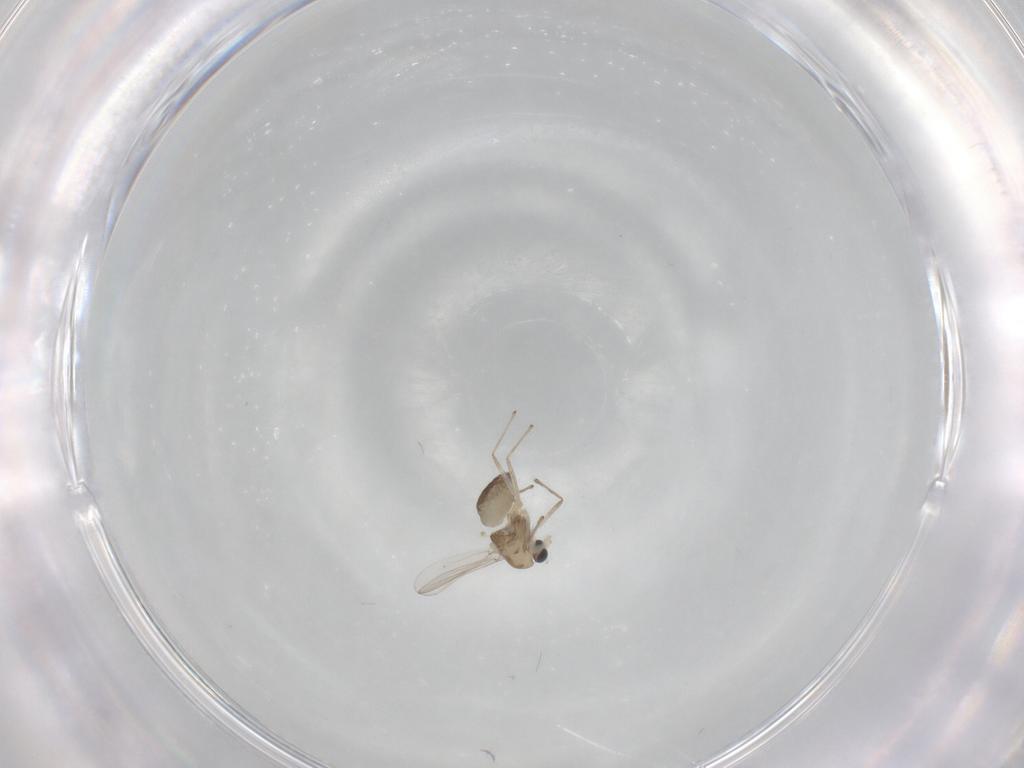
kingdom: Animalia
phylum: Arthropoda
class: Insecta
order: Diptera
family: Chironomidae
